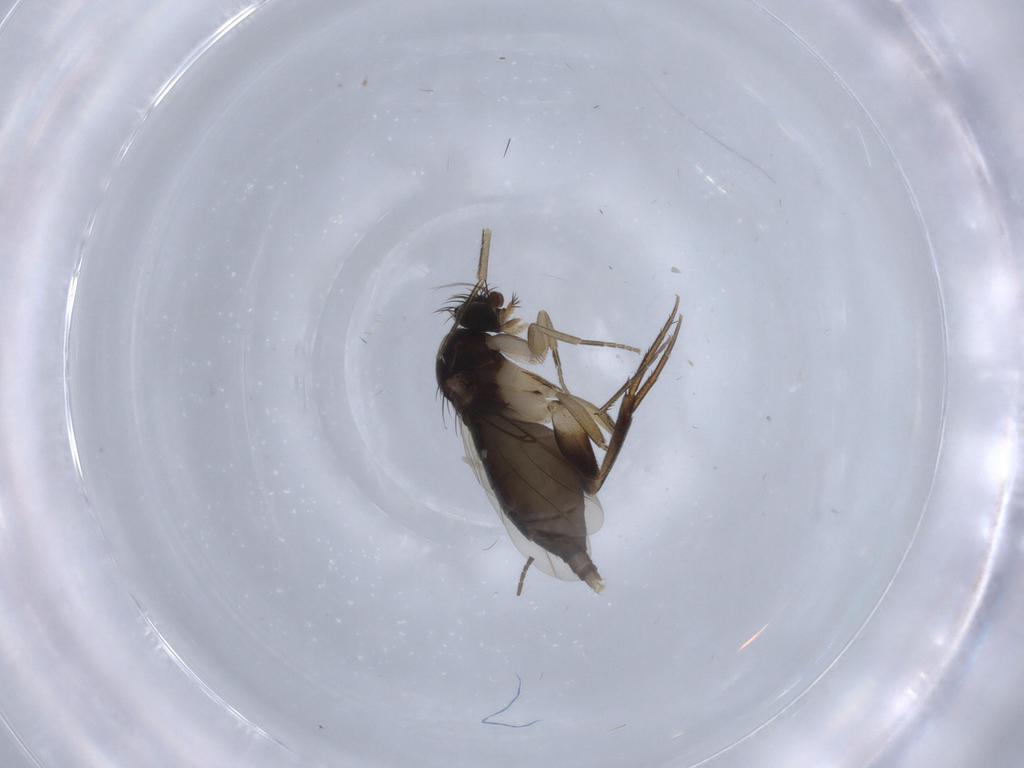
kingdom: Animalia
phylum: Arthropoda
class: Insecta
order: Diptera
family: Phoridae
